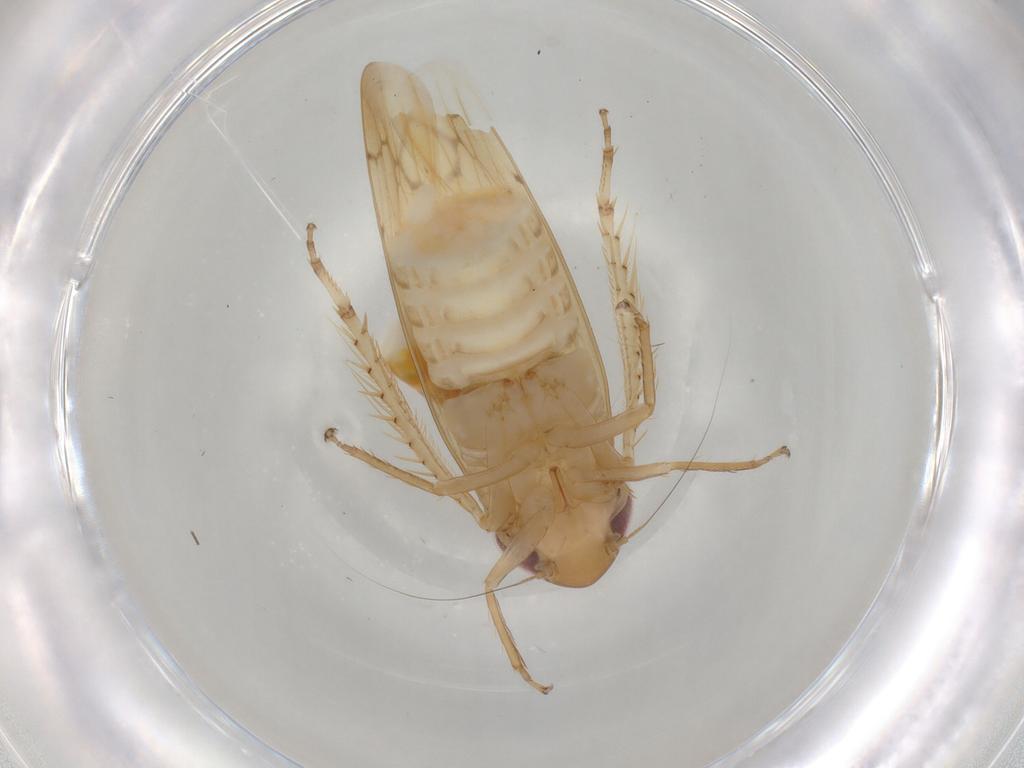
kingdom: Animalia
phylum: Arthropoda
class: Insecta
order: Hemiptera
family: Cicadellidae
